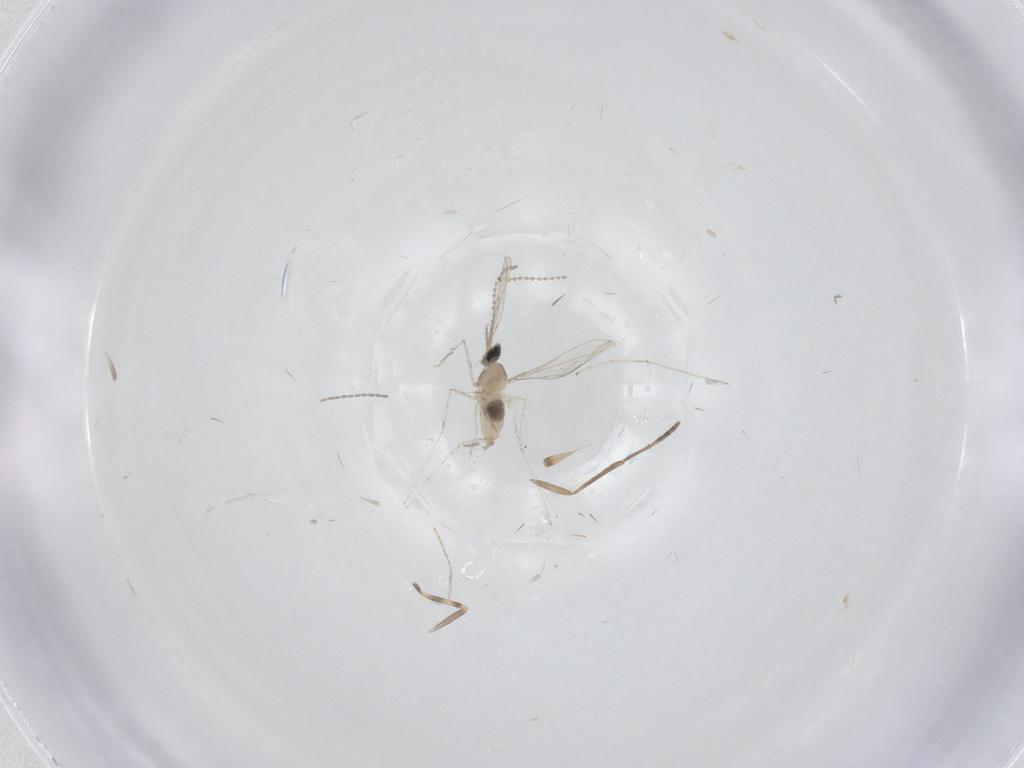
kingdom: Animalia
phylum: Arthropoda
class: Insecta
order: Diptera
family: Cecidomyiidae
